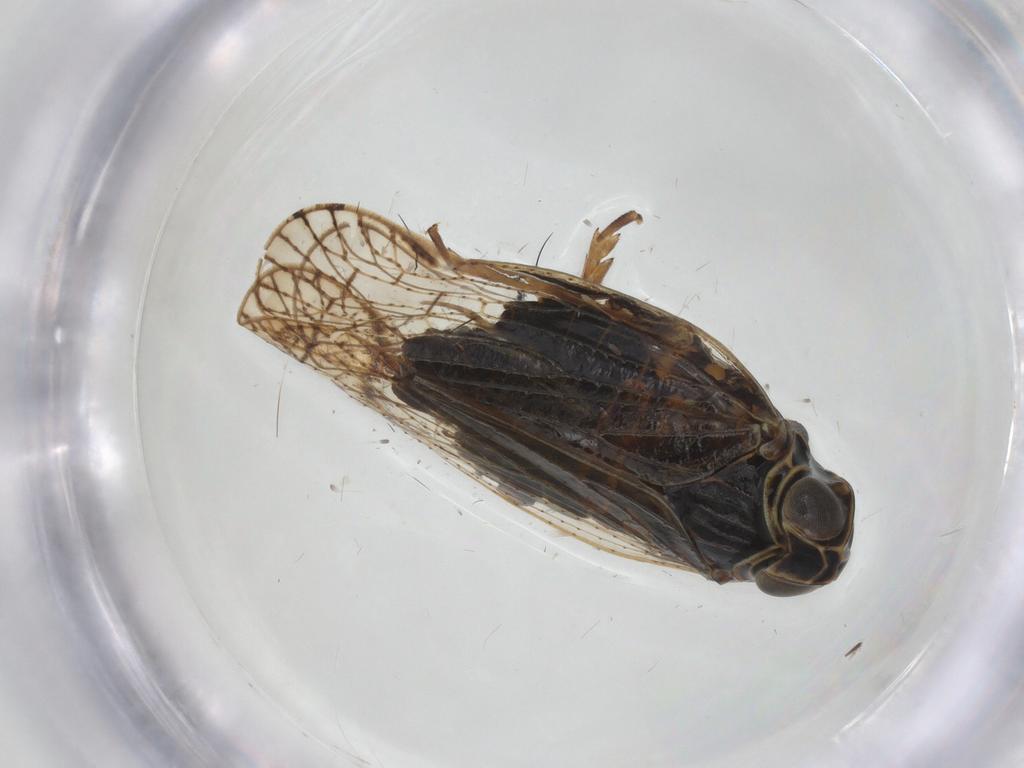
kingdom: Animalia
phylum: Arthropoda
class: Insecta
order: Hemiptera
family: Cixiidae
